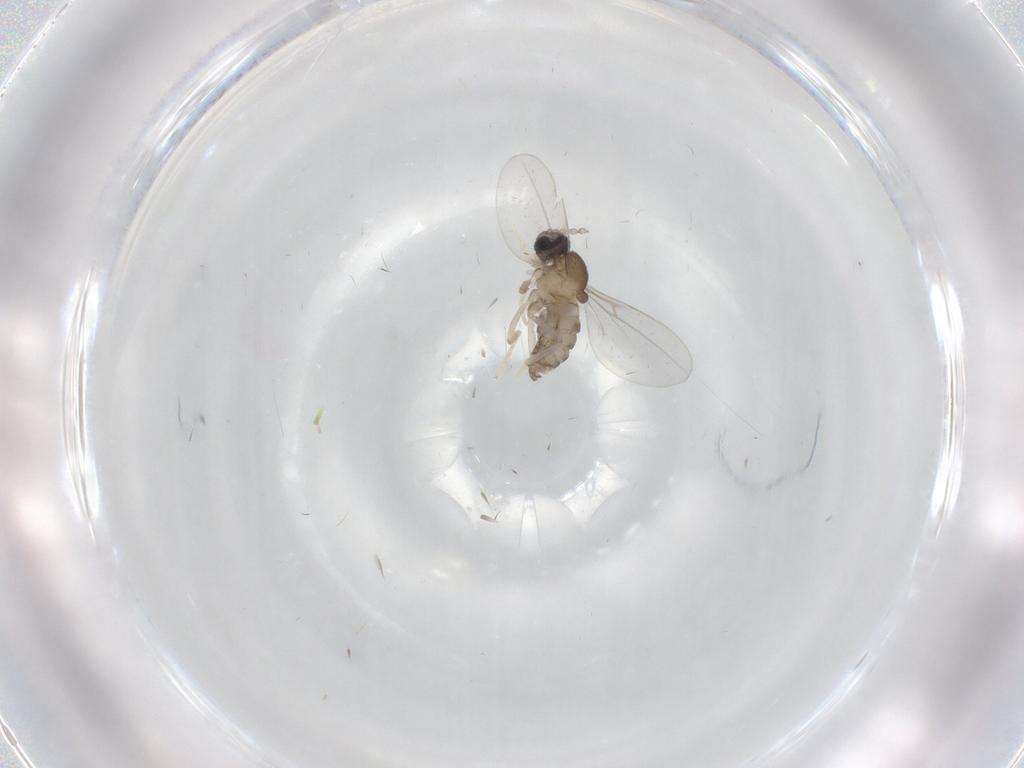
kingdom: Animalia
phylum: Arthropoda
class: Insecta
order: Diptera
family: Cecidomyiidae
